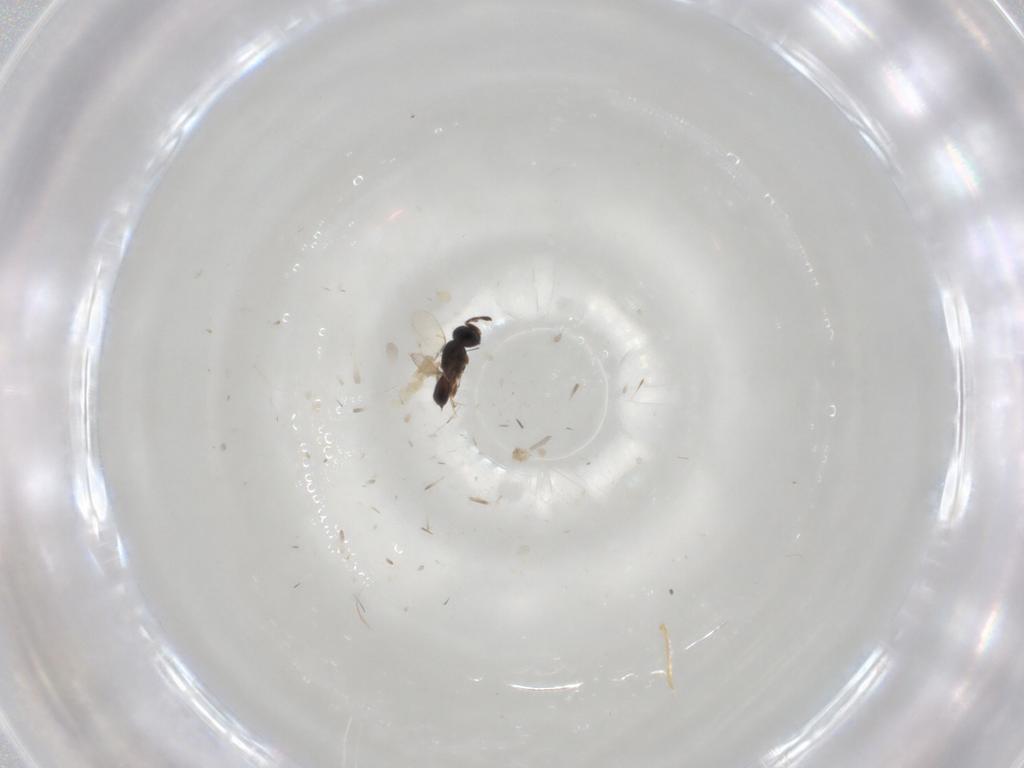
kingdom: Animalia
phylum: Arthropoda
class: Insecta
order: Hymenoptera
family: Scelionidae
